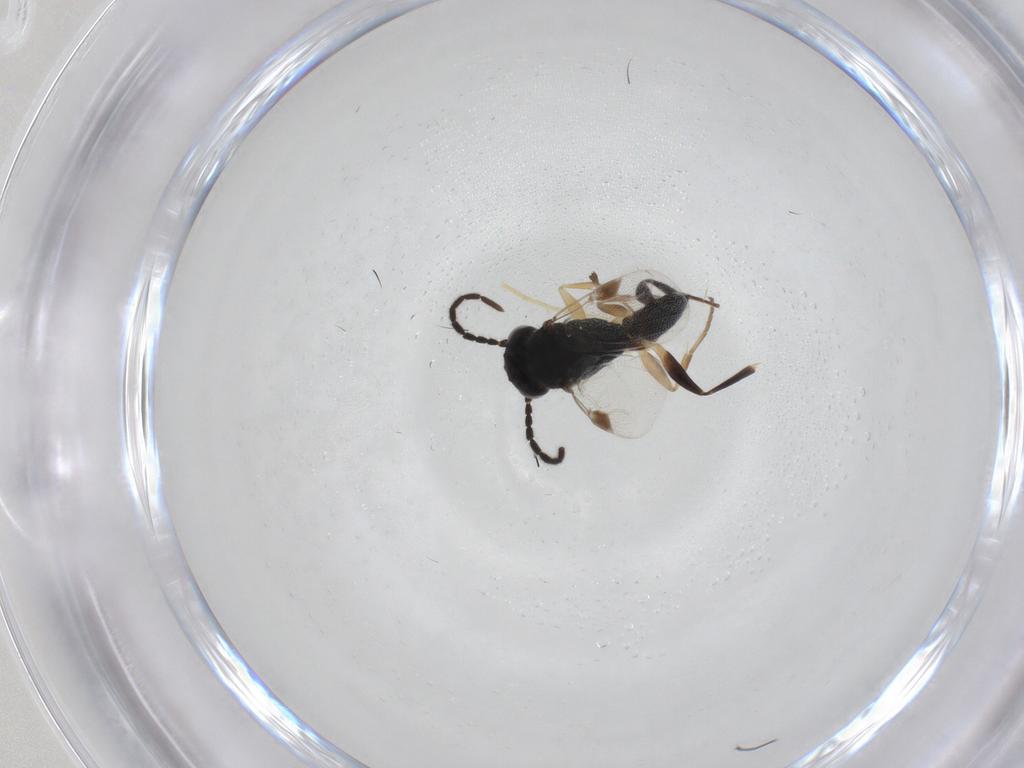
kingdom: Animalia
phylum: Arthropoda
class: Insecta
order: Hymenoptera
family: Dryinidae
